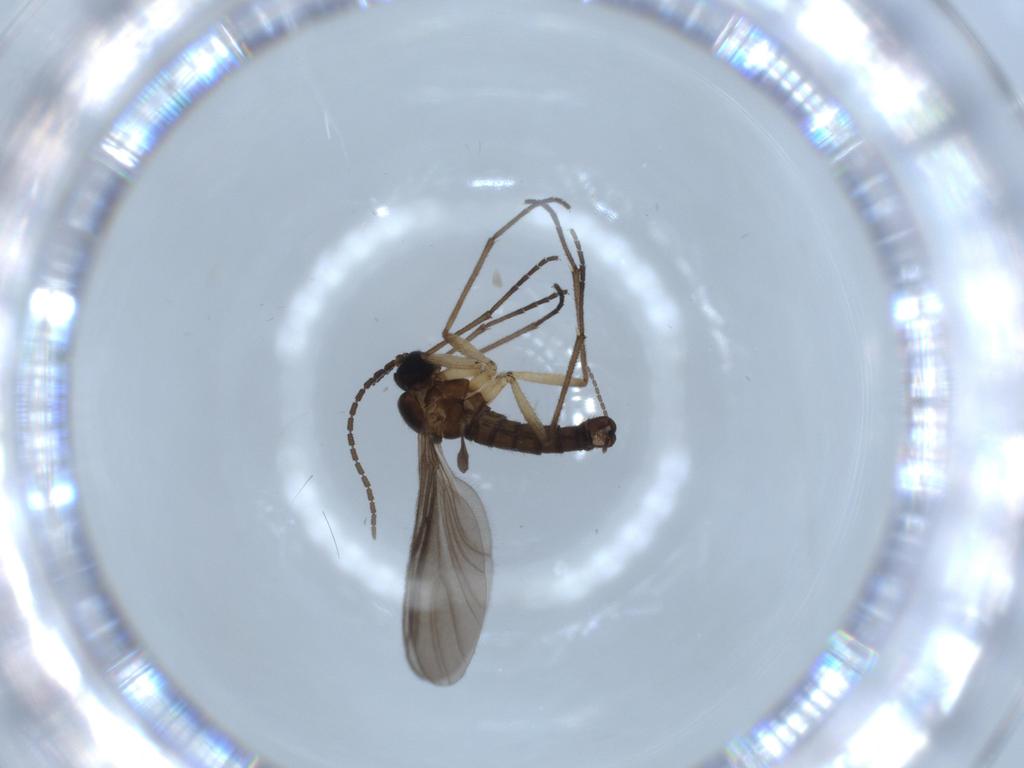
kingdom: Animalia
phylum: Arthropoda
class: Insecta
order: Diptera
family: Sciaridae
